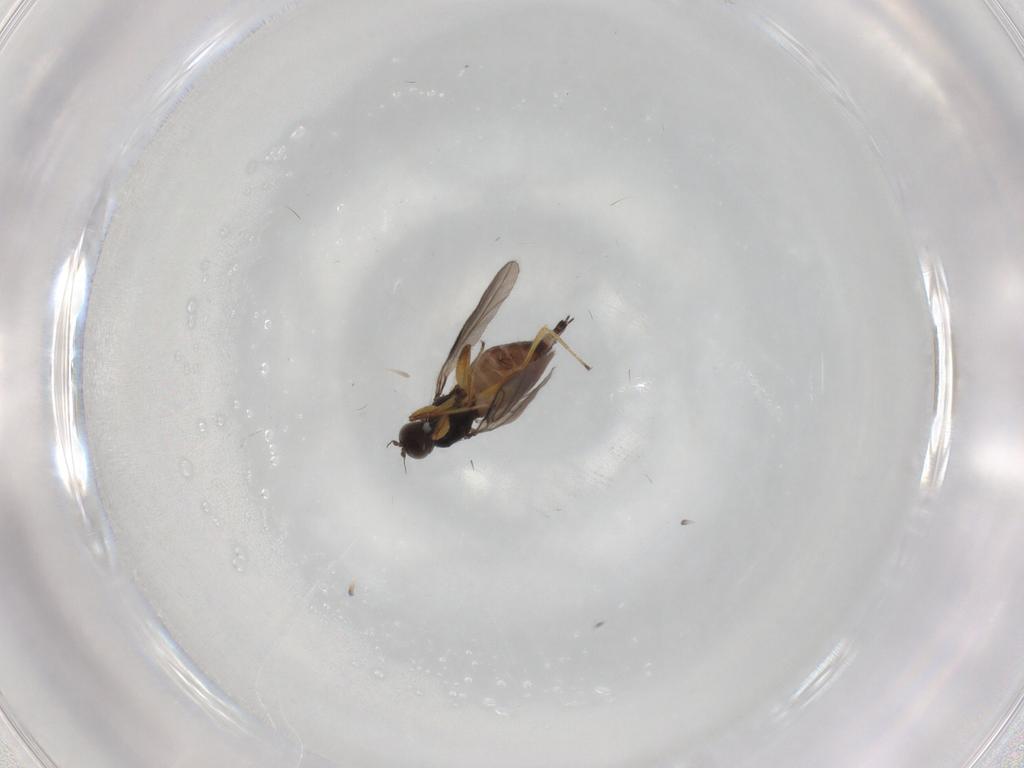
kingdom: Animalia
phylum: Arthropoda
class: Insecta
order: Diptera
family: Hybotidae
